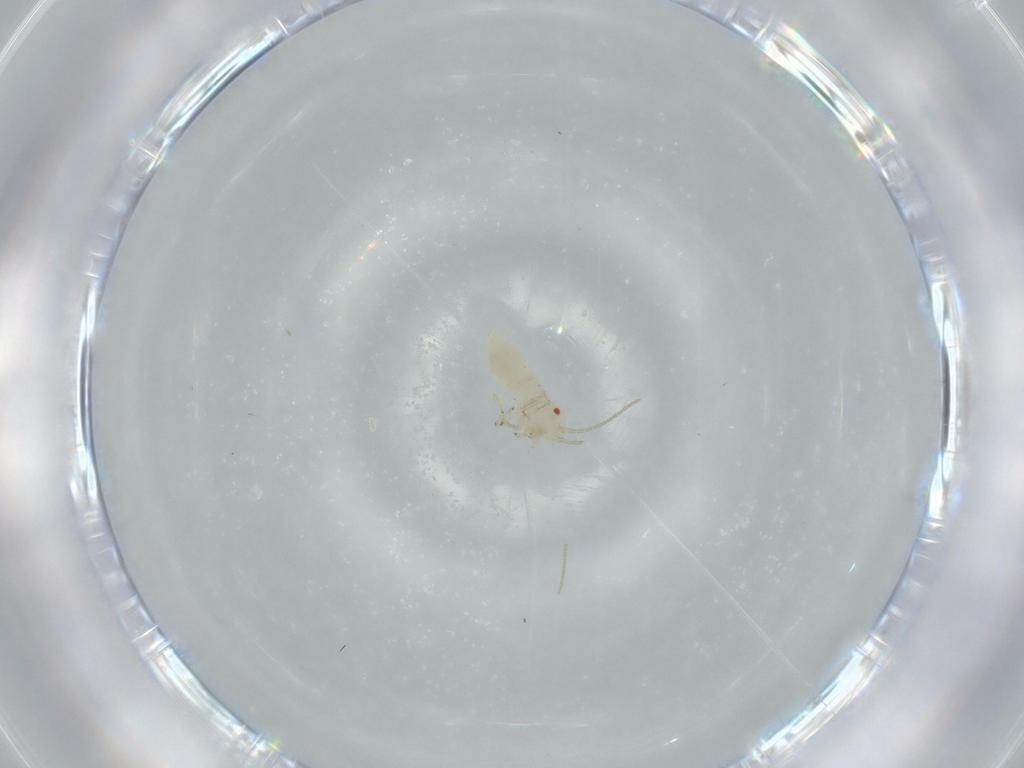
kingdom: Animalia
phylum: Arthropoda
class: Insecta
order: Psocodea
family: Caeciliusidae
